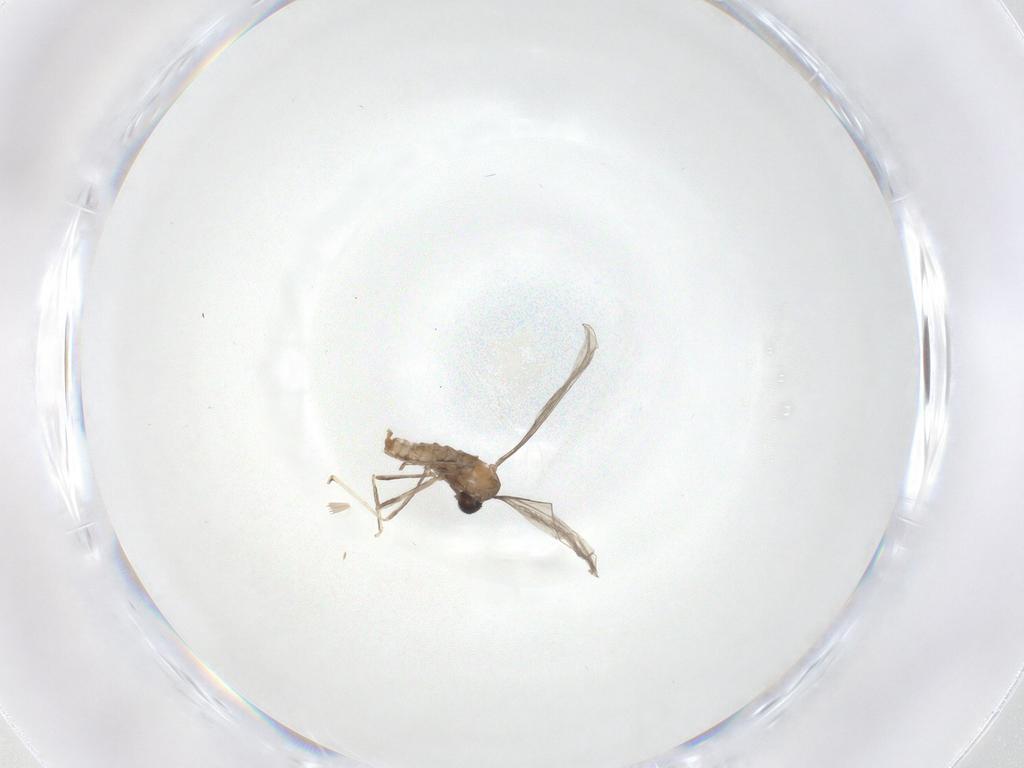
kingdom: Animalia
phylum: Arthropoda
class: Insecta
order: Diptera
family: Cecidomyiidae
